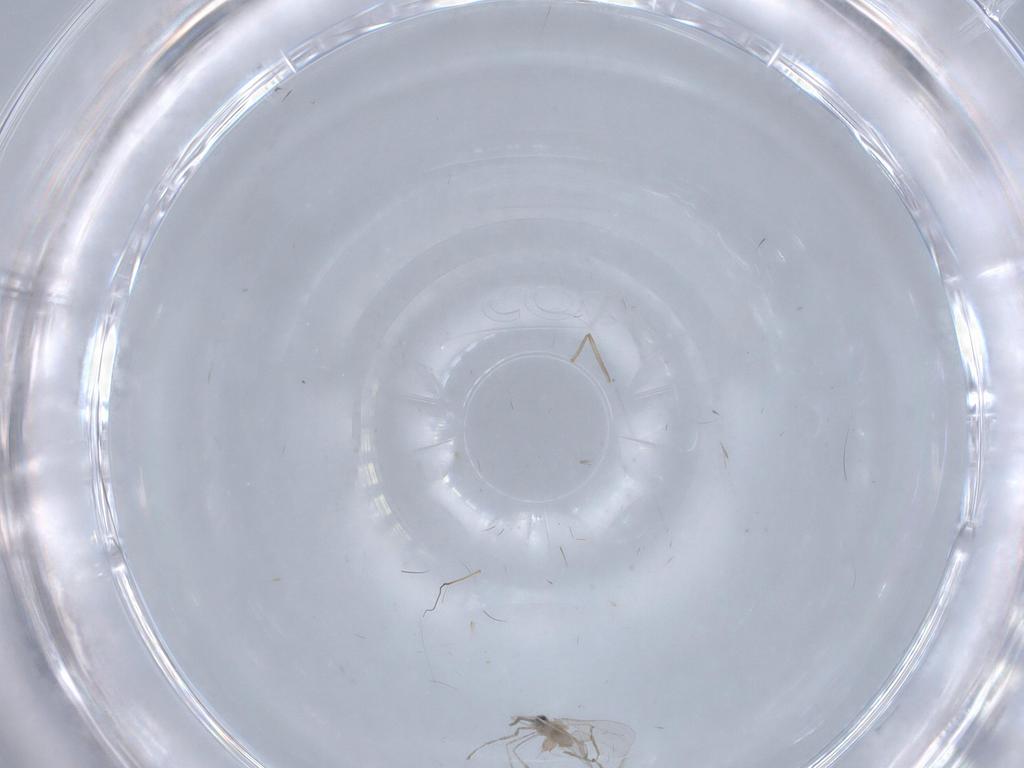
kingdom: Animalia
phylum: Arthropoda
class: Insecta
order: Diptera
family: Chironomidae
